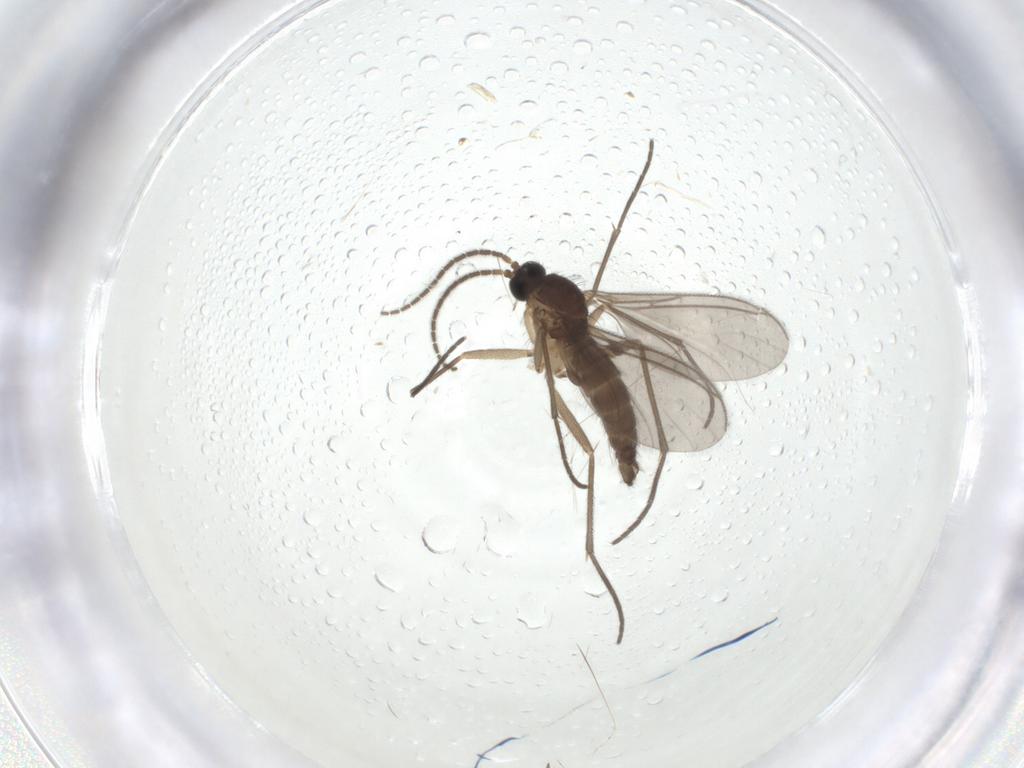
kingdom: Animalia
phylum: Arthropoda
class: Insecta
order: Diptera
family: Sciaridae
